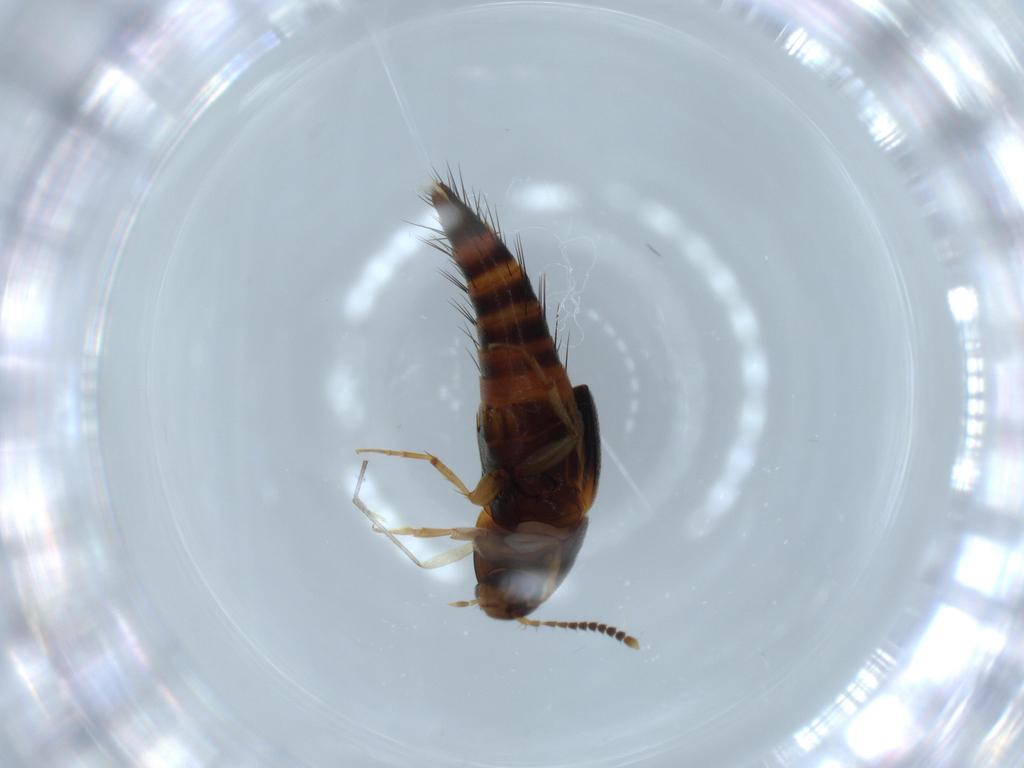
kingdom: Animalia
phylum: Arthropoda
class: Insecta
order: Coleoptera
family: Staphylinidae
